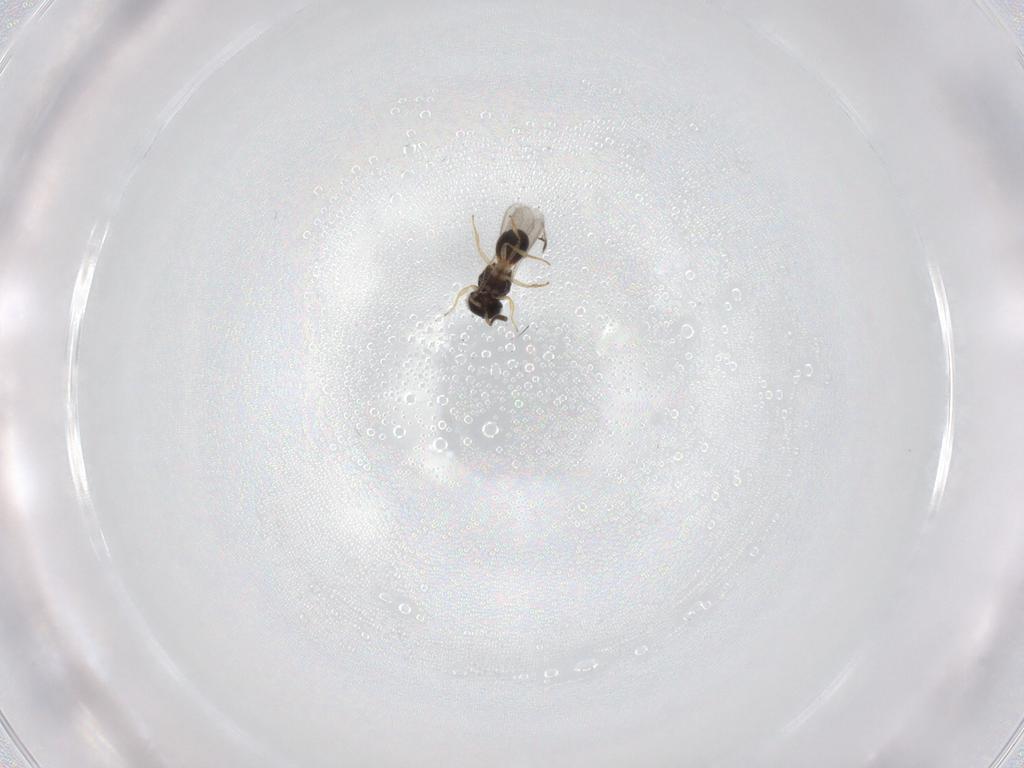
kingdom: Animalia
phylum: Arthropoda
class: Insecta
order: Hymenoptera
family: Scelionidae
